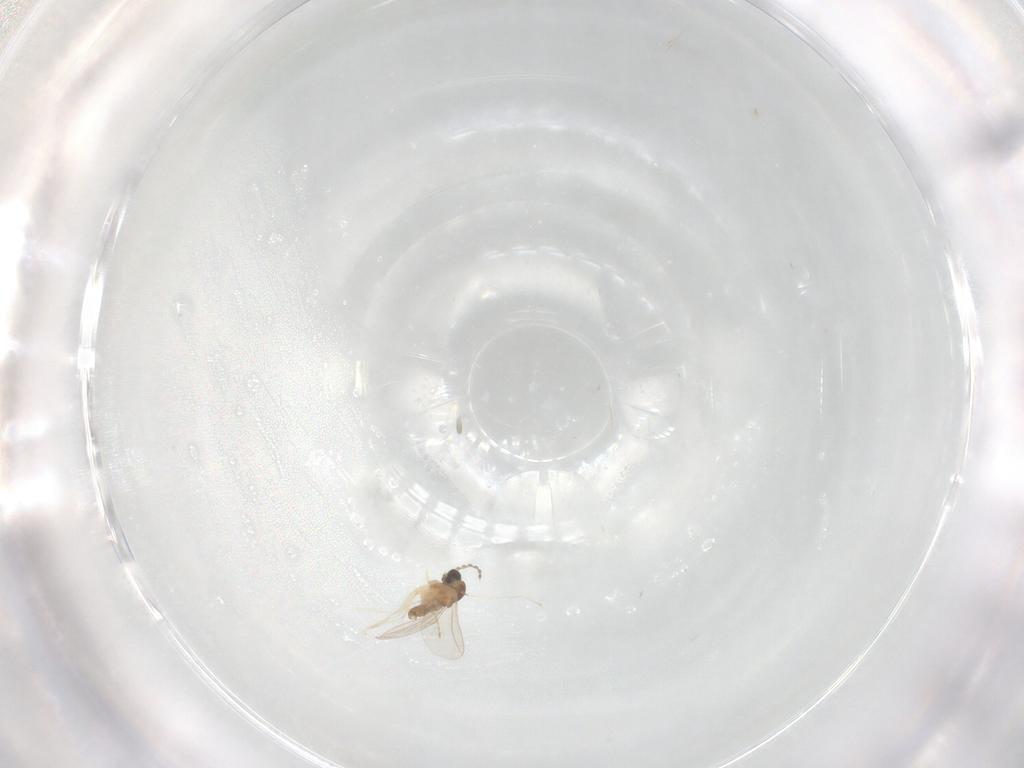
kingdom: Animalia
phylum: Arthropoda
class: Insecta
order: Diptera
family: Cecidomyiidae
